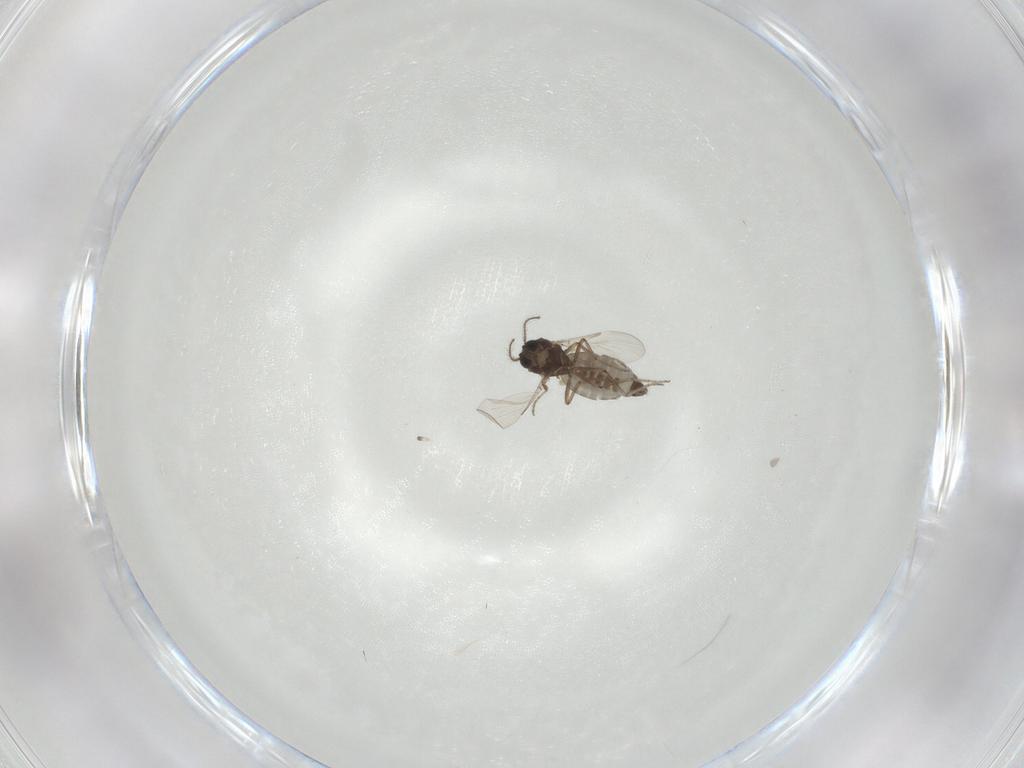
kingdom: Animalia
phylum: Arthropoda
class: Insecta
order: Diptera
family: Ceratopogonidae
